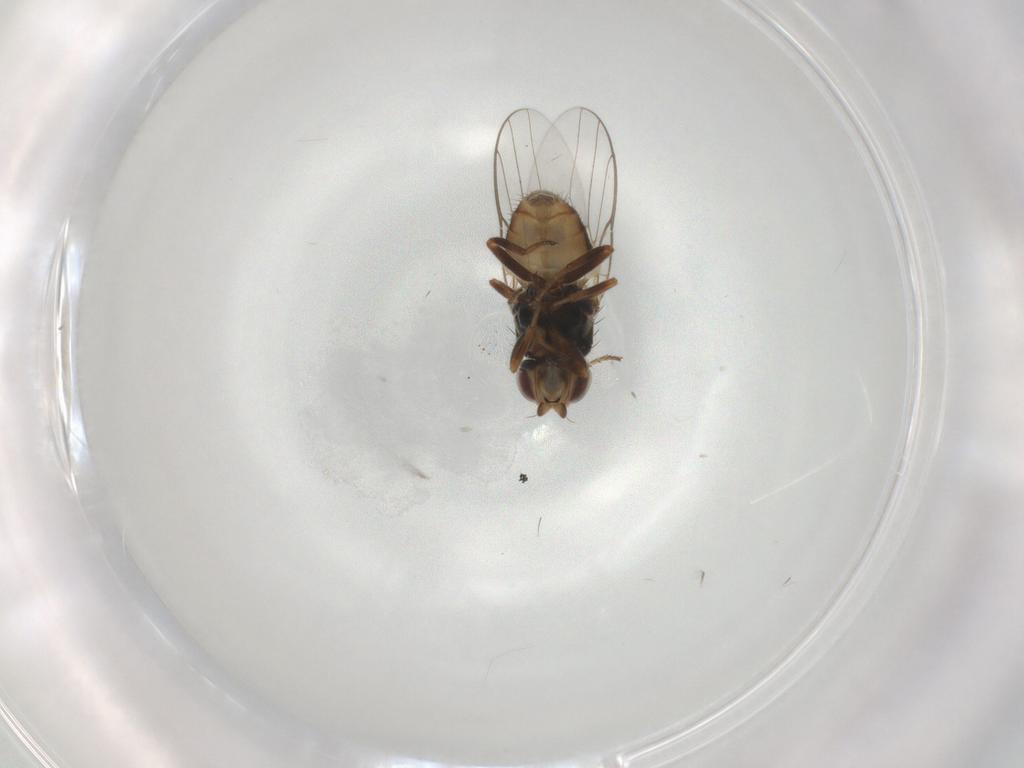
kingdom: Animalia
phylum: Arthropoda
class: Insecta
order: Diptera
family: Chloropidae
